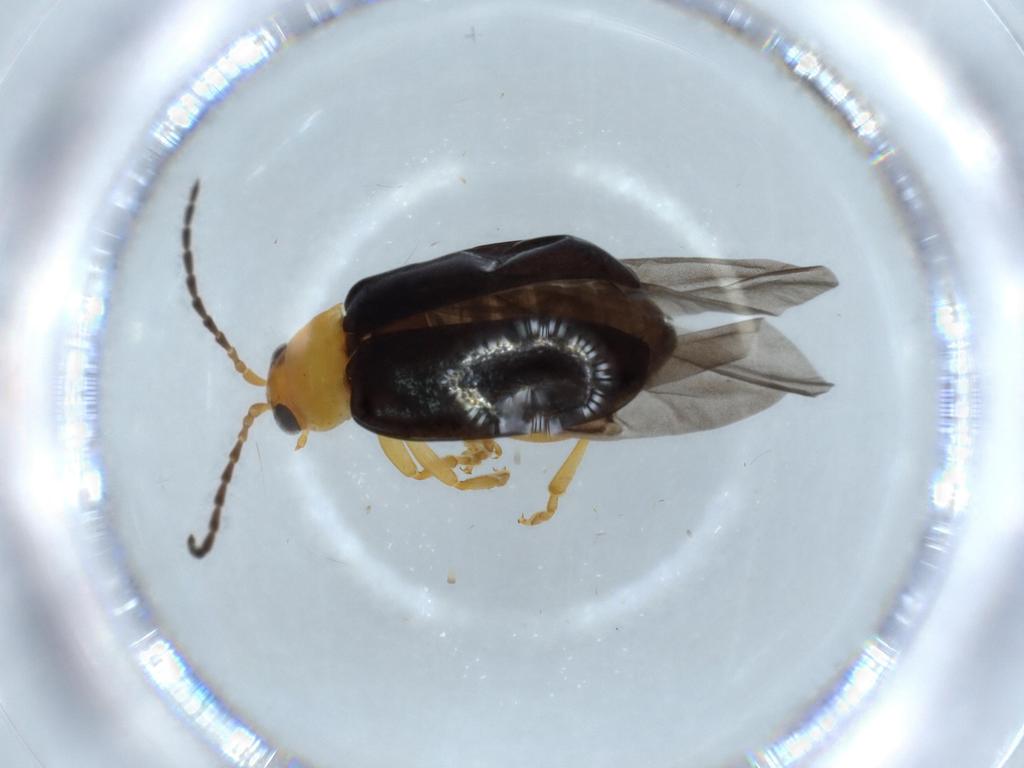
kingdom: Animalia
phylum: Arthropoda
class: Insecta
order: Coleoptera
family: Chrysomelidae
